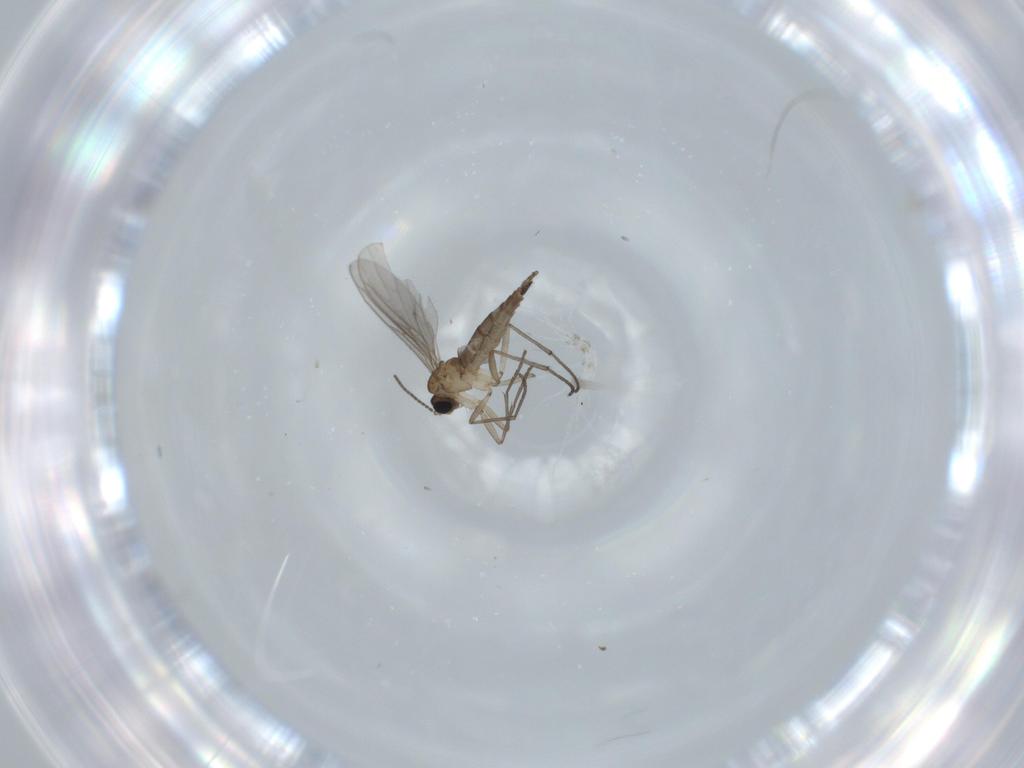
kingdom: Animalia
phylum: Arthropoda
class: Insecta
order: Diptera
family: Sciaridae
